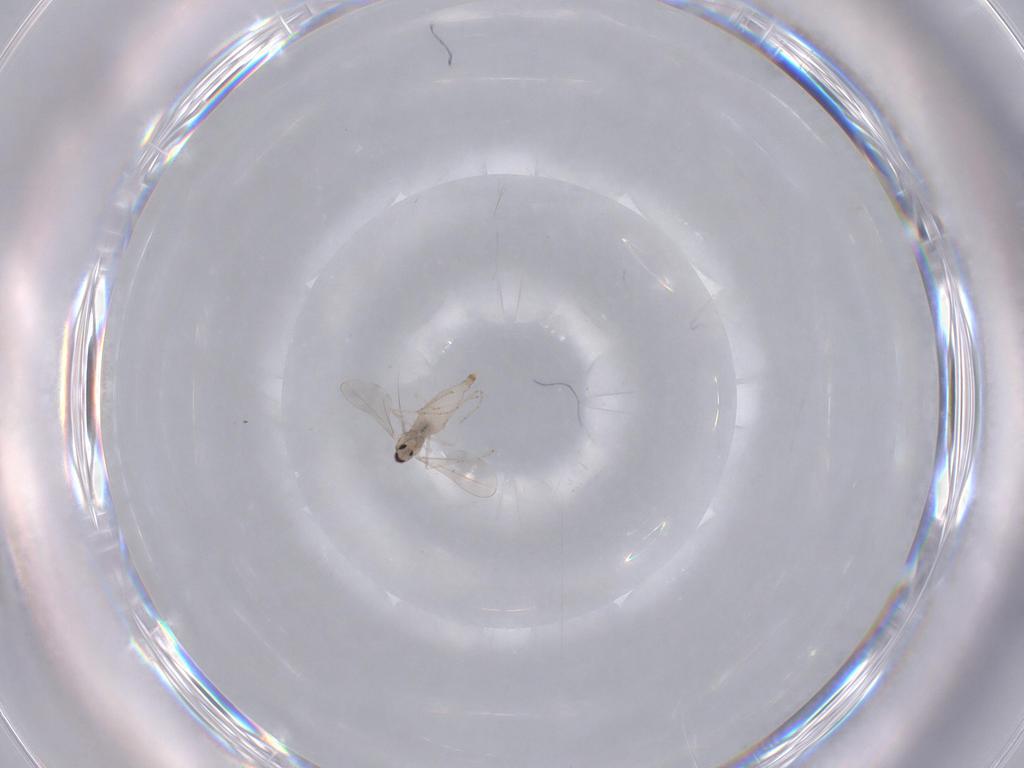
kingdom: Animalia
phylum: Arthropoda
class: Insecta
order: Diptera
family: Cecidomyiidae
